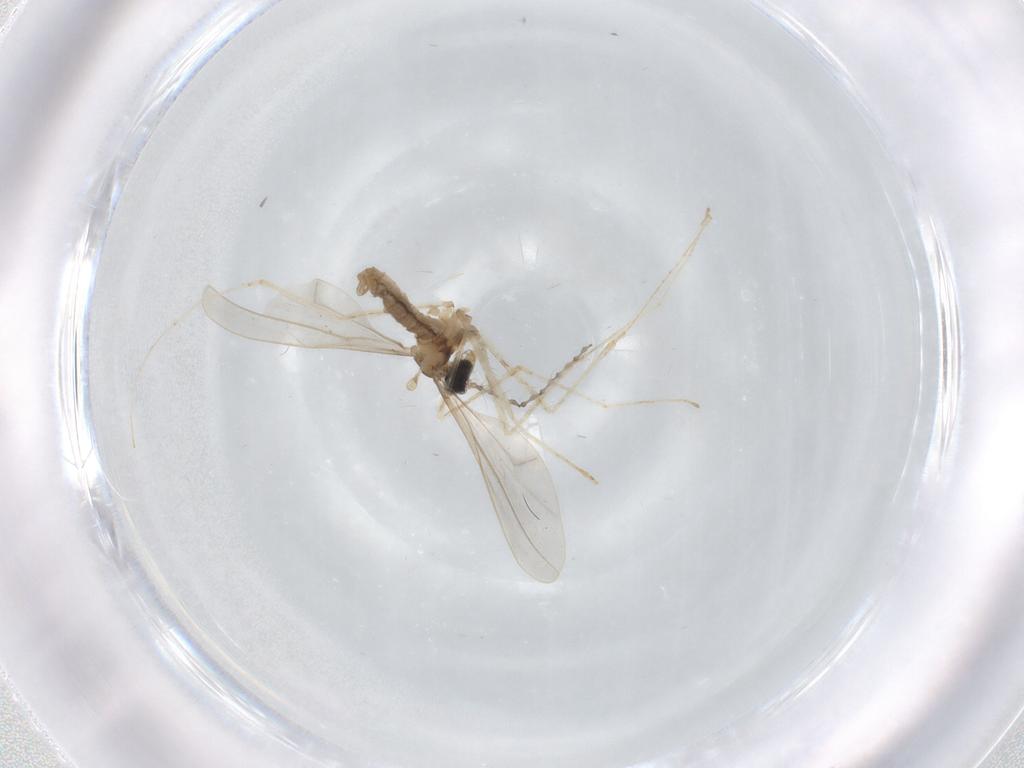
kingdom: Animalia
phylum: Arthropoda
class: Insecta
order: Diptera
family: Cecidomyiidae
